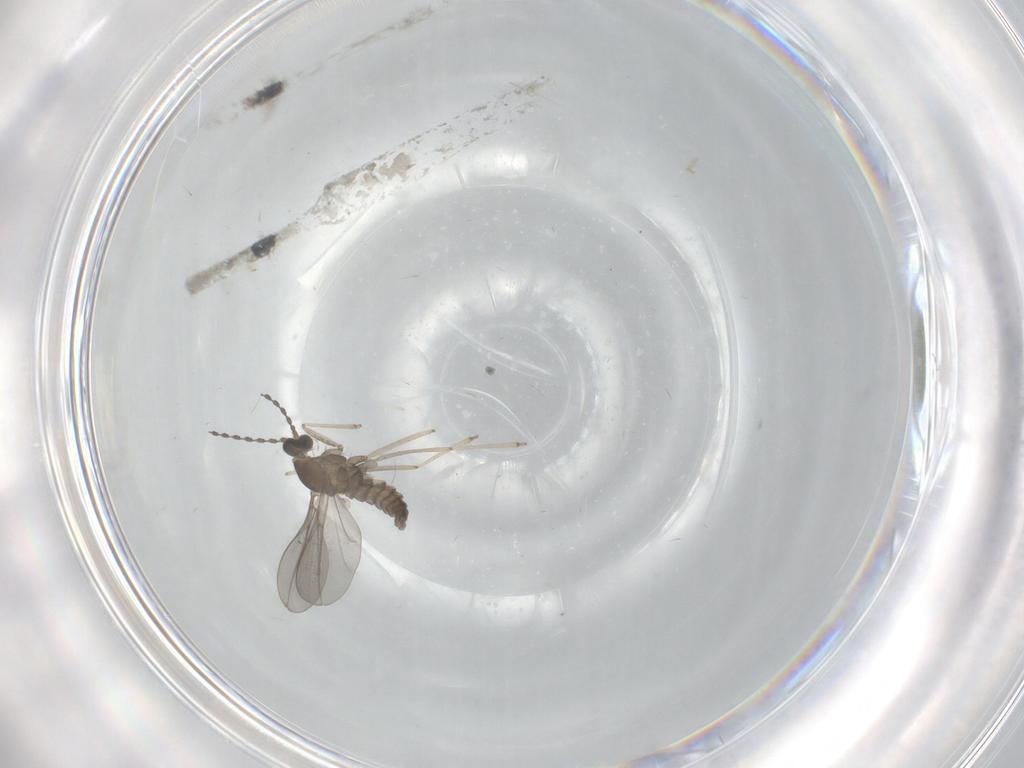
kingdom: Animalia
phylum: Arthropoda
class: Insecta
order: Diptera
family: Cecidomyiidae
